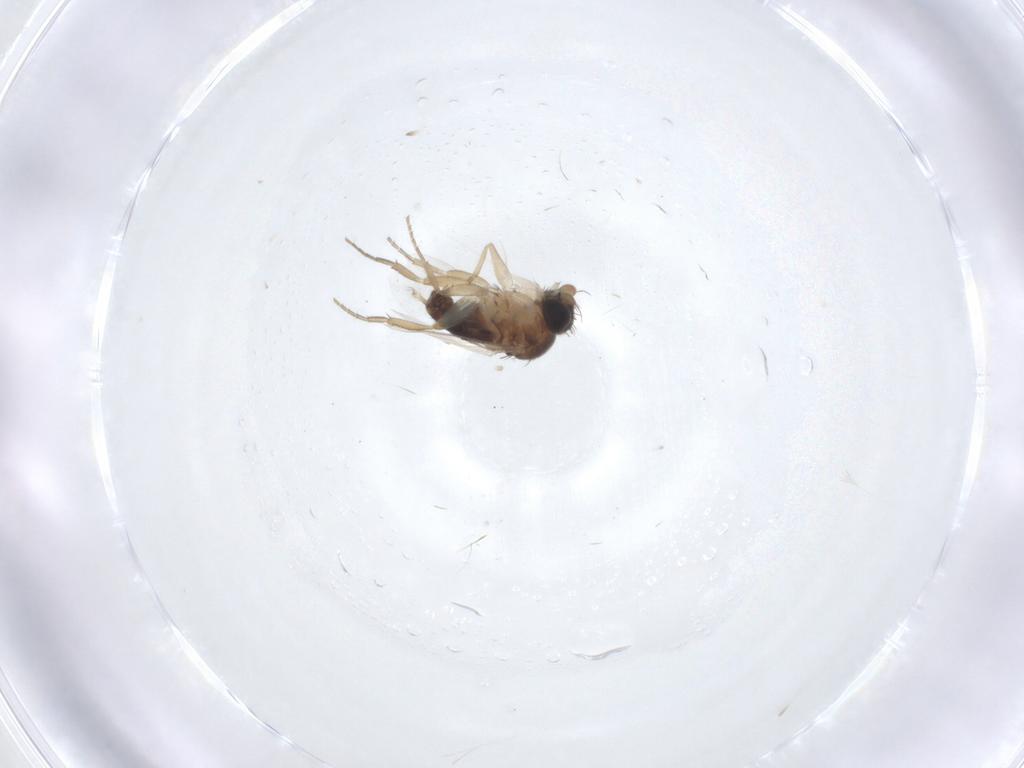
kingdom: Animalia
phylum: Arthropoda
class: Insecta
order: Diptera
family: Phoridae
